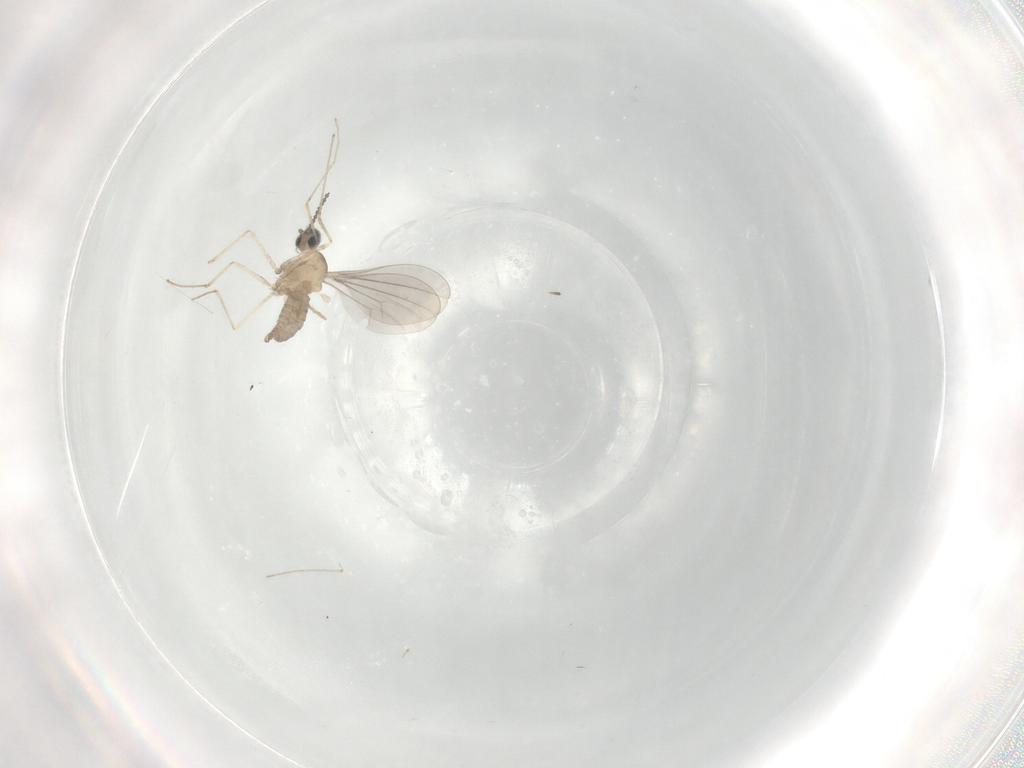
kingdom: Animalia
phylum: Arthropoda
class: Insecta
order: Diptera
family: Cecidomyiidae
